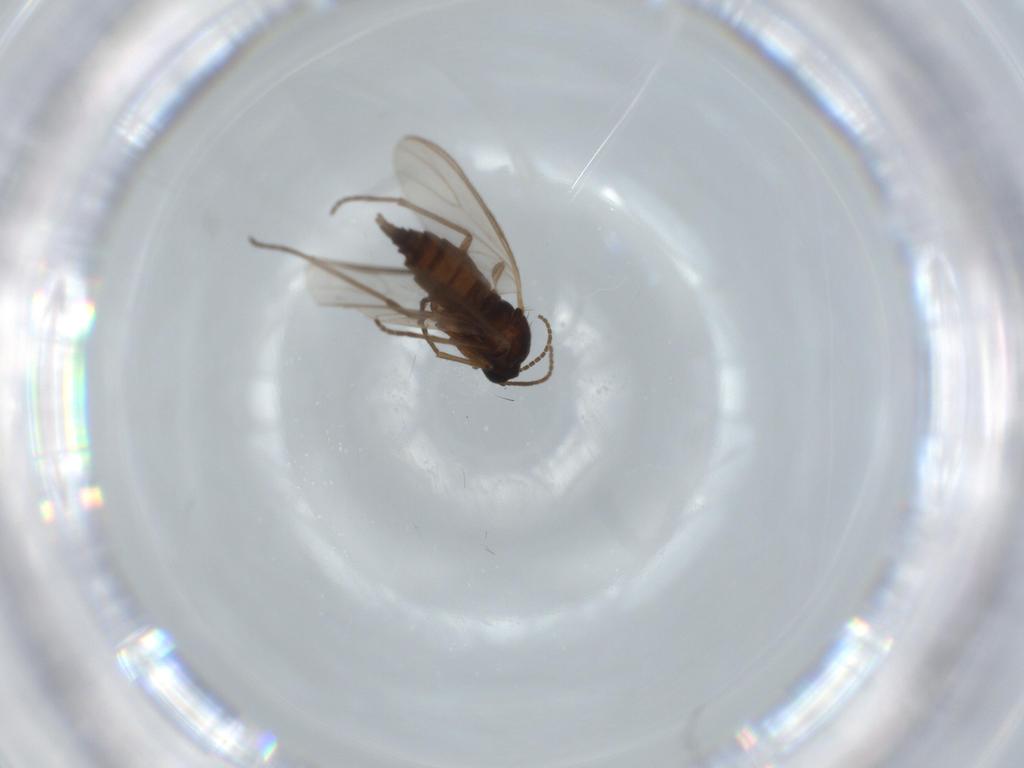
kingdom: Animalia
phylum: Arthropoda
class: Insecta
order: Diptera
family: Sciaridae
